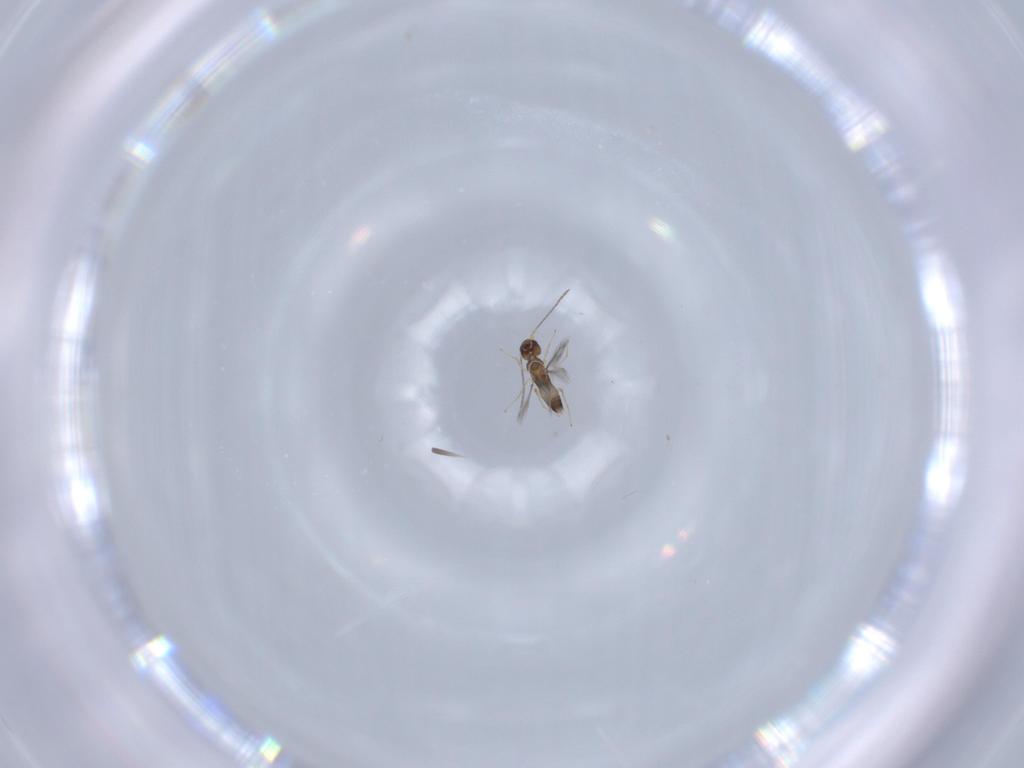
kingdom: Animalia
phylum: Arthropoda
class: Insecta
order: Hymenoptera
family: Mymaridae
